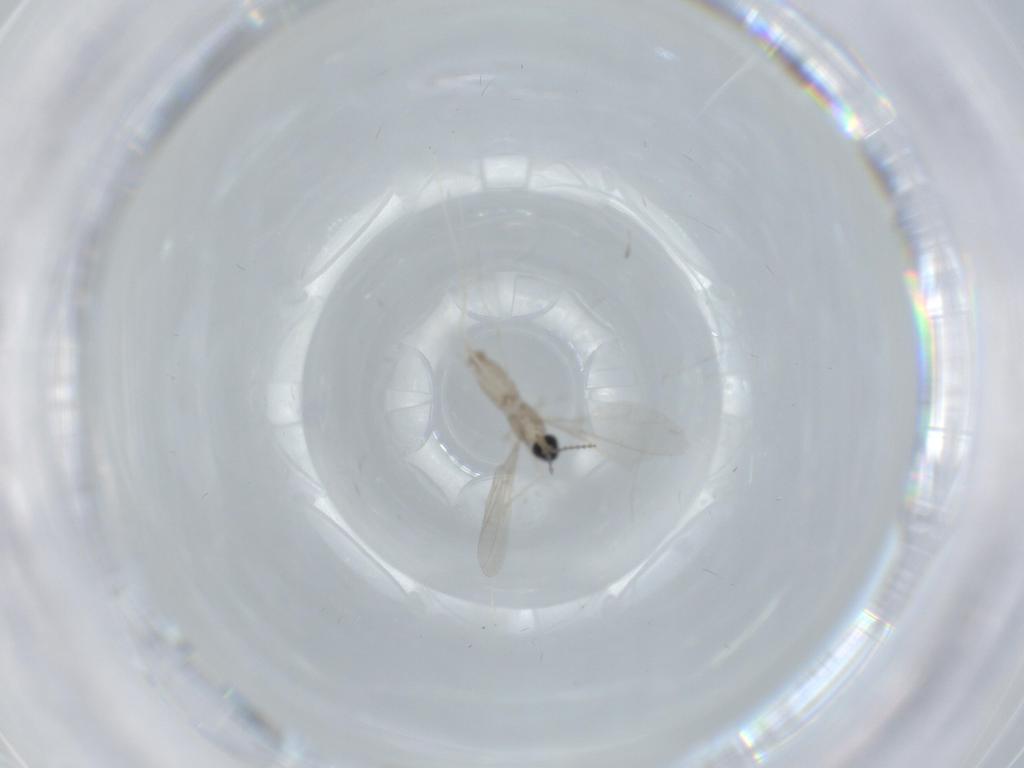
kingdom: Animalia
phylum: Arthropoda
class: Insecta
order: Diptera
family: Cecidomyiidae
